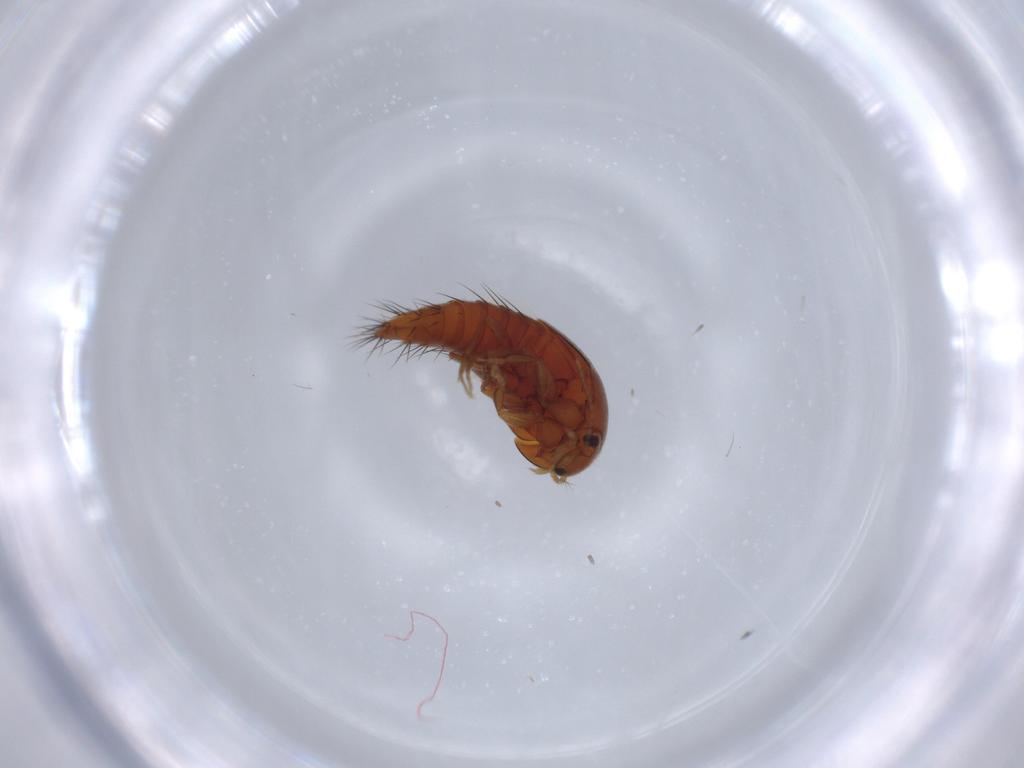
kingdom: Animalia
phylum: Arthropoda
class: Insecta
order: Coleoptera
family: Staphylinidae
